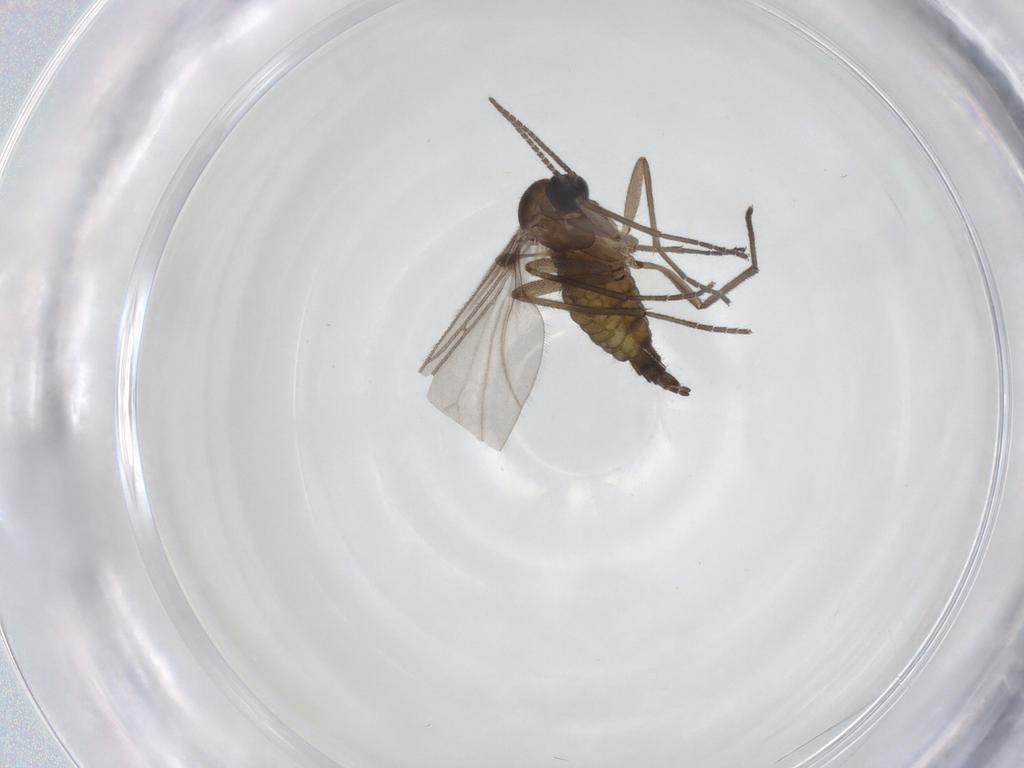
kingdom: Animalia
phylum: Arthropoda
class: Insecta
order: Diptera
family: Sciaridae
